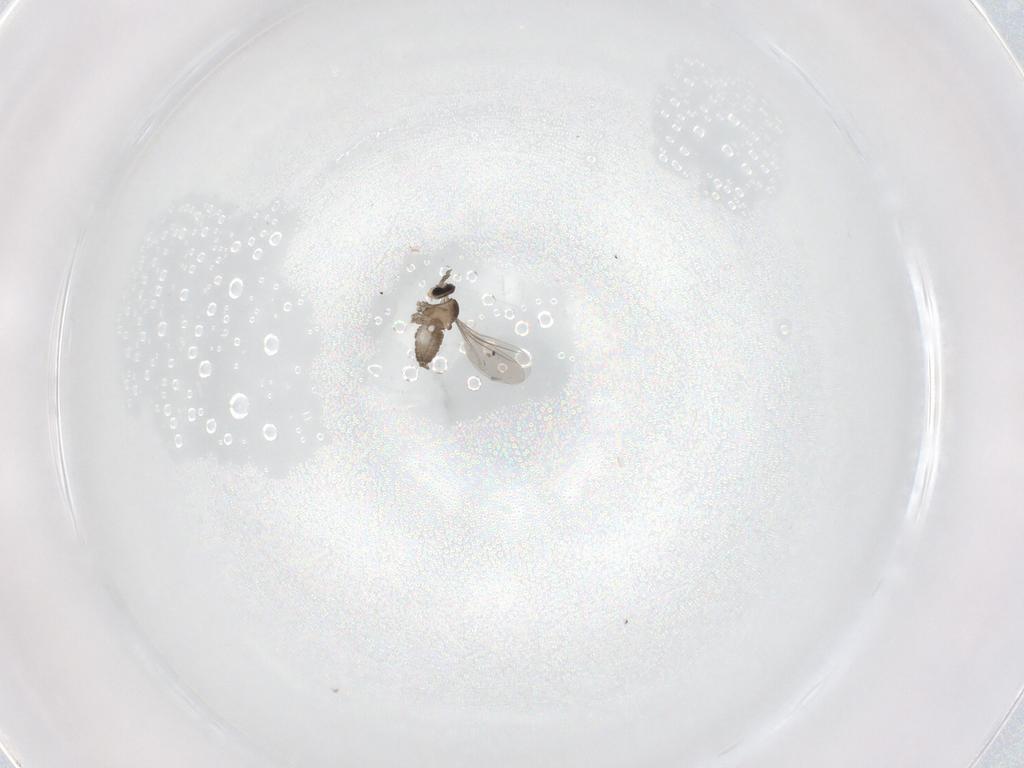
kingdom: Animalia
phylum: Arthropoda
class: Insecta
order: Diptera
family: Cecidomyiidae
